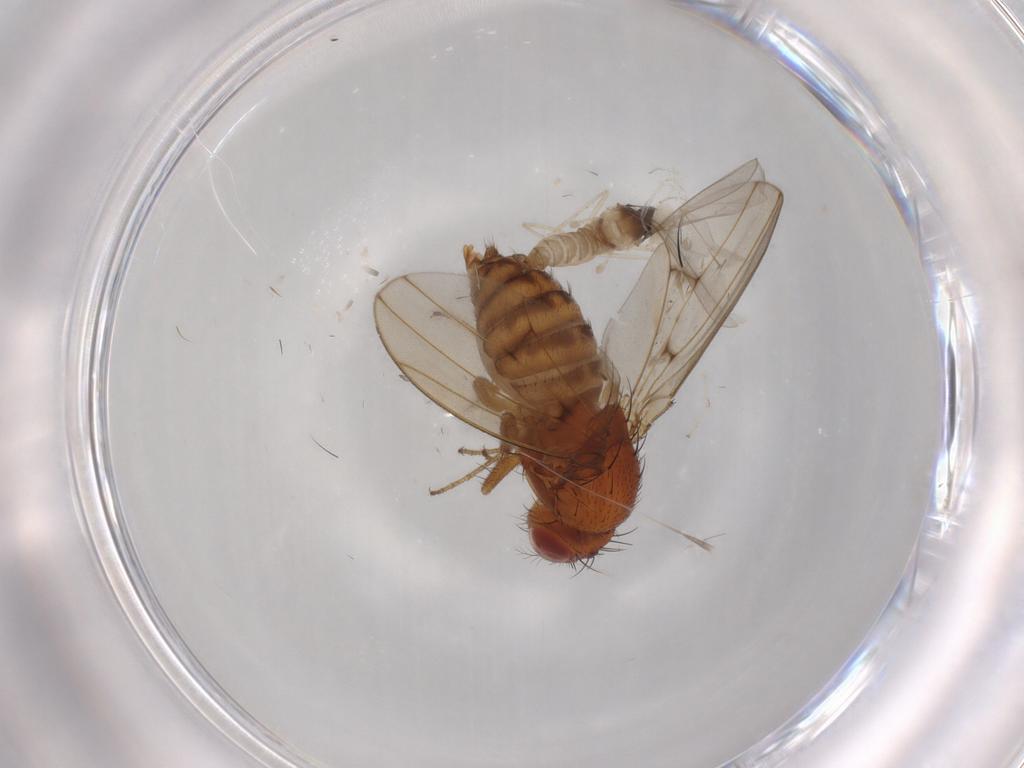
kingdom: Animalia
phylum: Arthropoda
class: Insecta
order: Diptera
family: Drosophilidae
